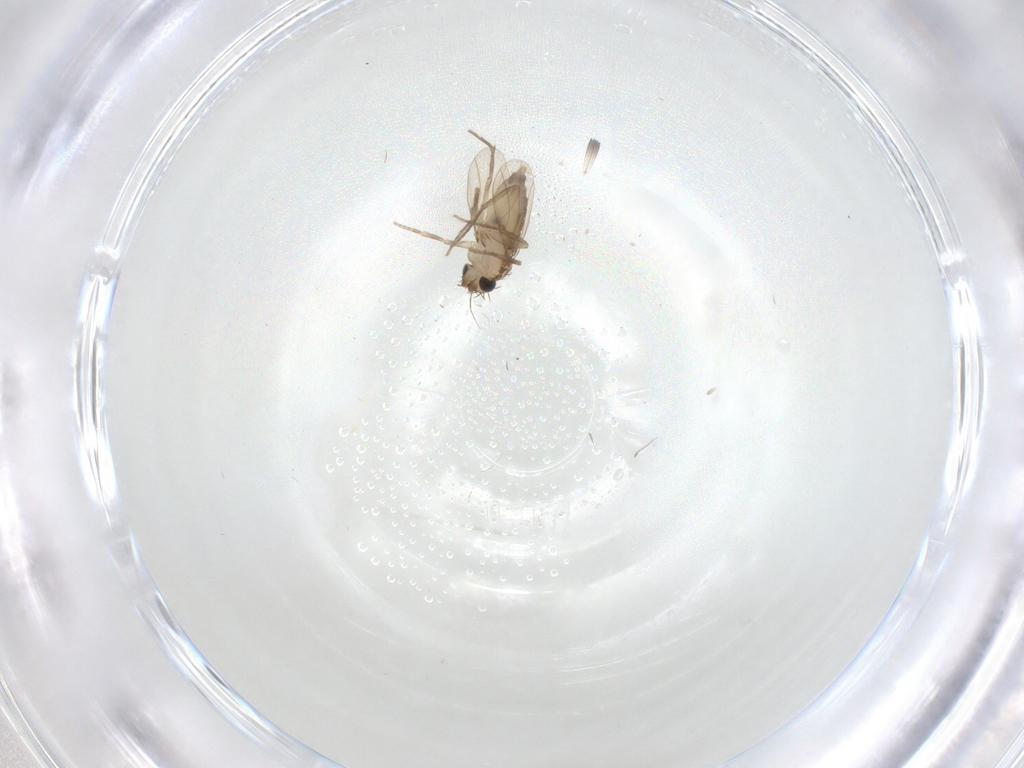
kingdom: Animalia
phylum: Arthropoda
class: Insecta
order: Diptera
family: Phoridae
